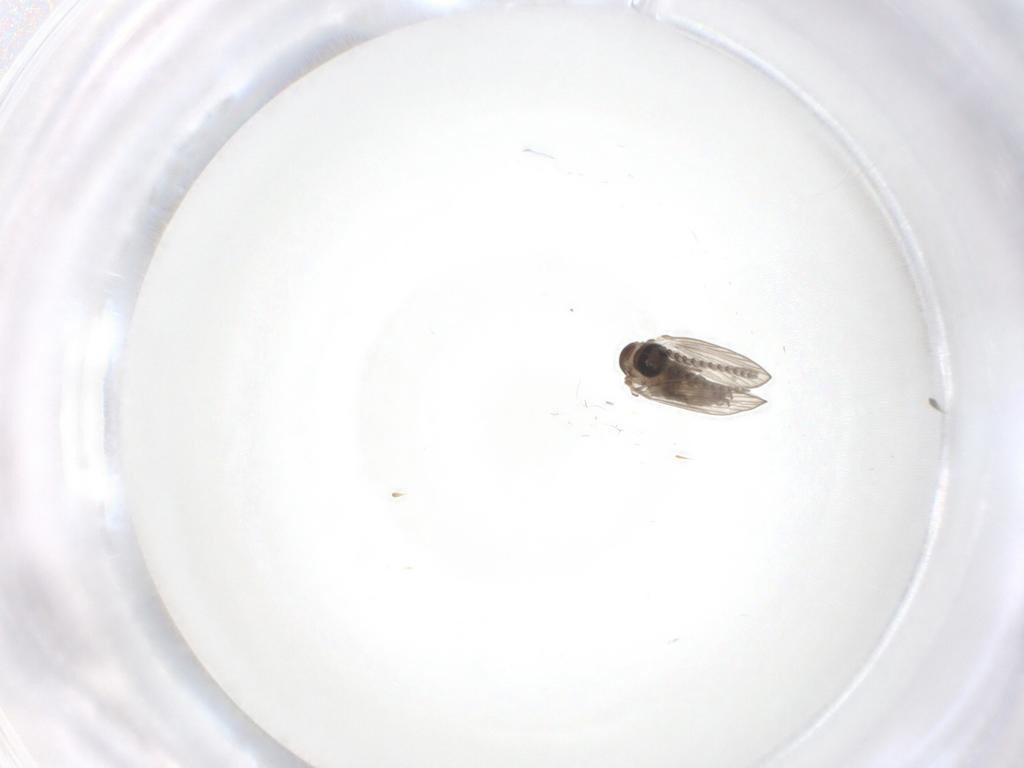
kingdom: Animalia
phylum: Arthropoda
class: Insecta
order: Diptera
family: Psychodidae
